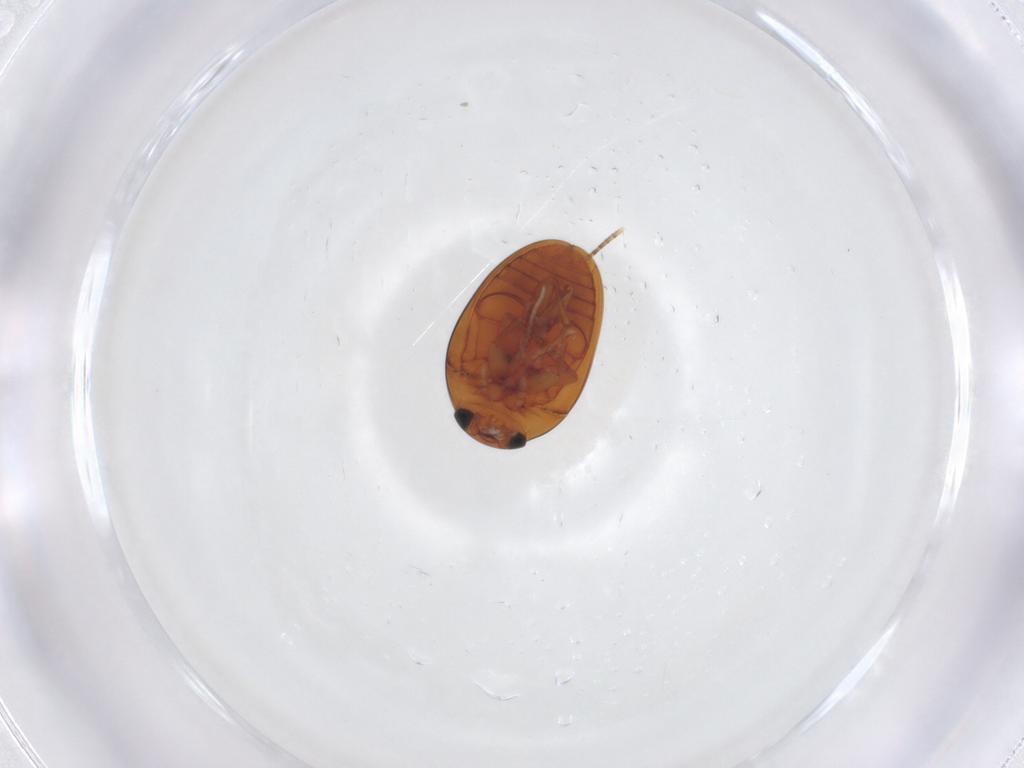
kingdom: Animalia
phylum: Arthropoda
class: Insecta
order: Coleoptera
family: Phalacridae
